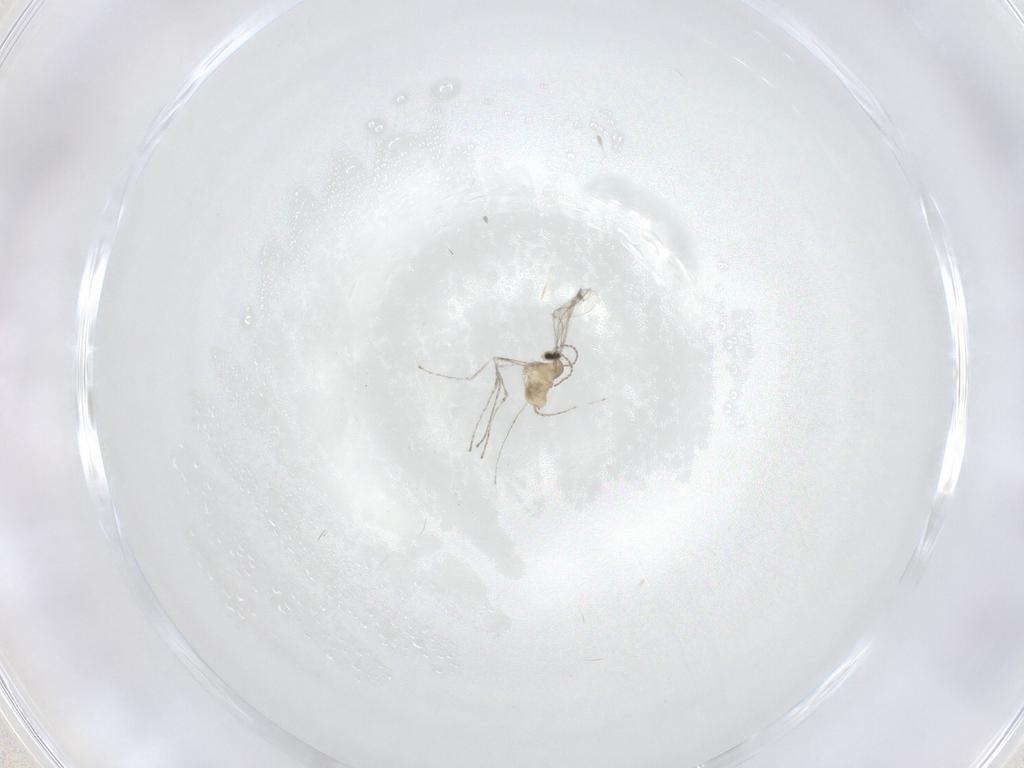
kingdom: Animalia
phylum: Arthropoda
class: Insecta
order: Diptera
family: Cecidomyiidae
